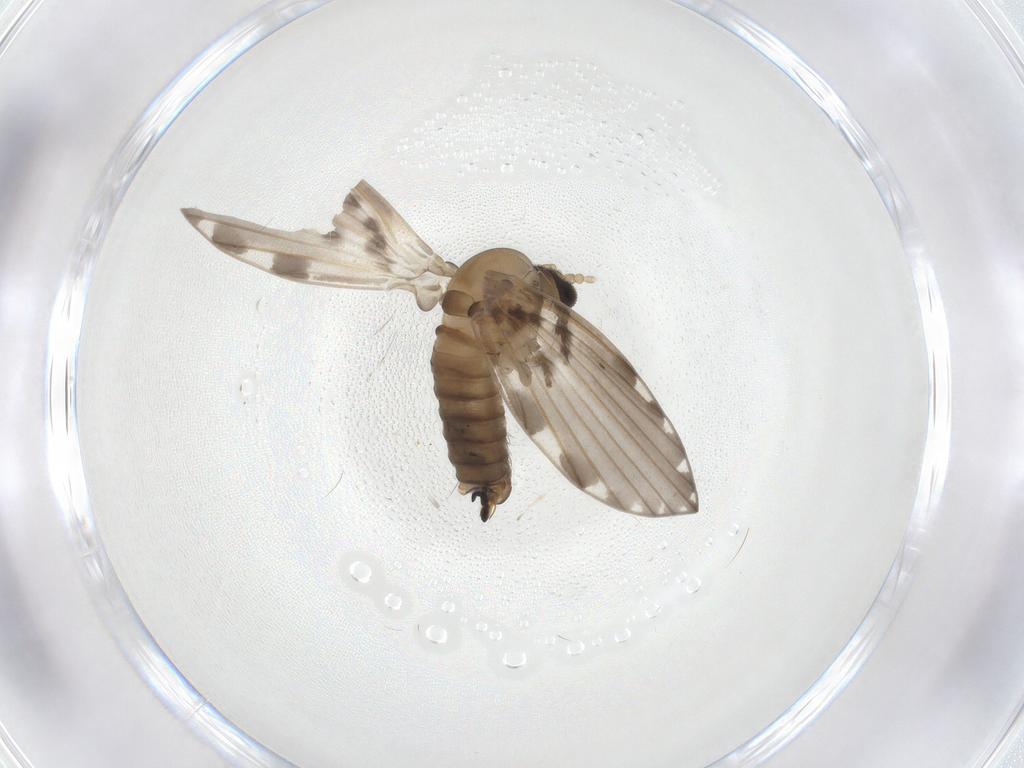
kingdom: Animalia
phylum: Arthropoda
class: Insecta
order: Diptera
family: Psychodidae
